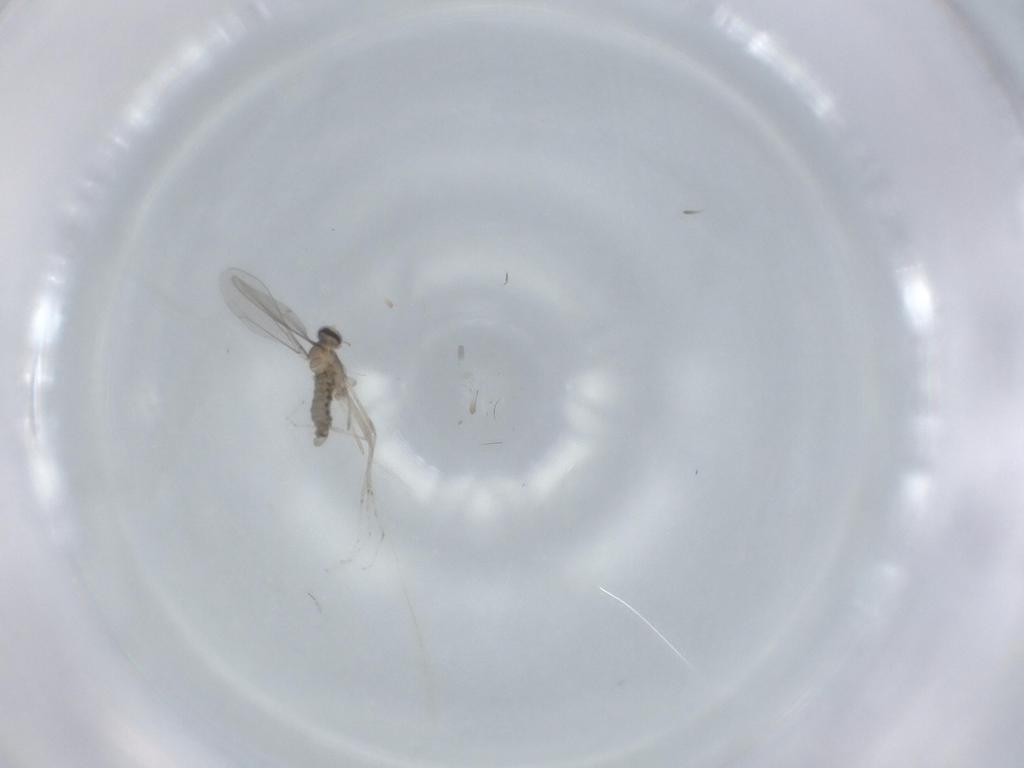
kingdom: Animalia
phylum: Arthropoda
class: Insecta
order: Diptera
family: Cecidomyiidae
